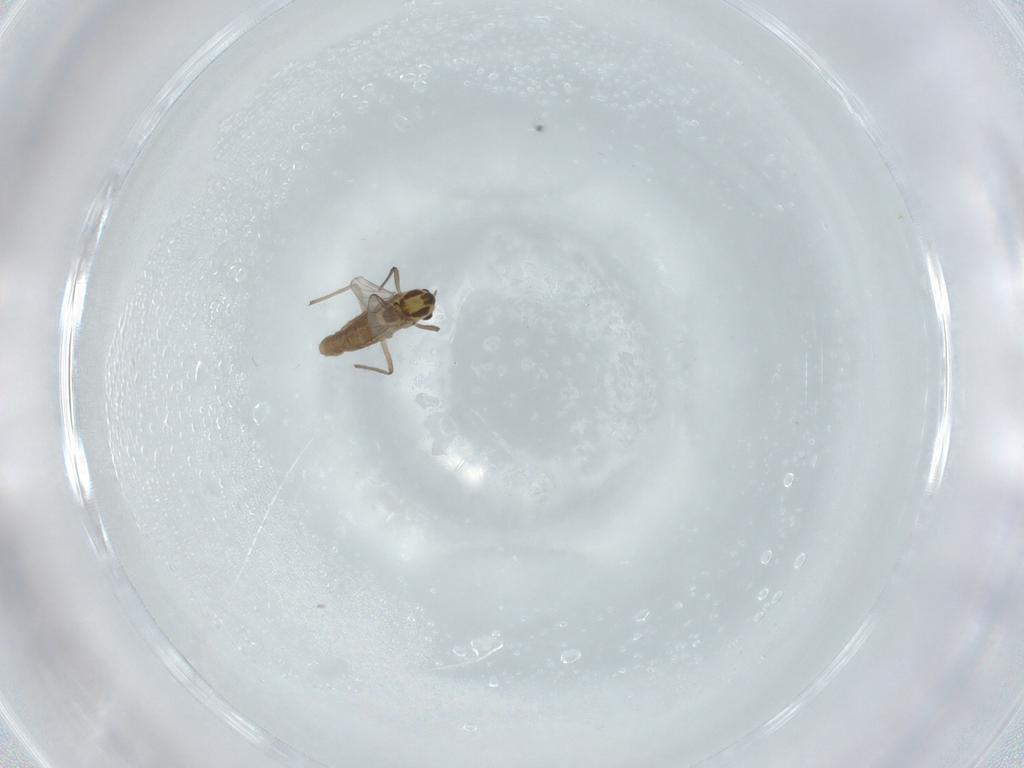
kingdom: Animalia
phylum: Arthropoda
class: Insecta
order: Diptera
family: Chironomidae
